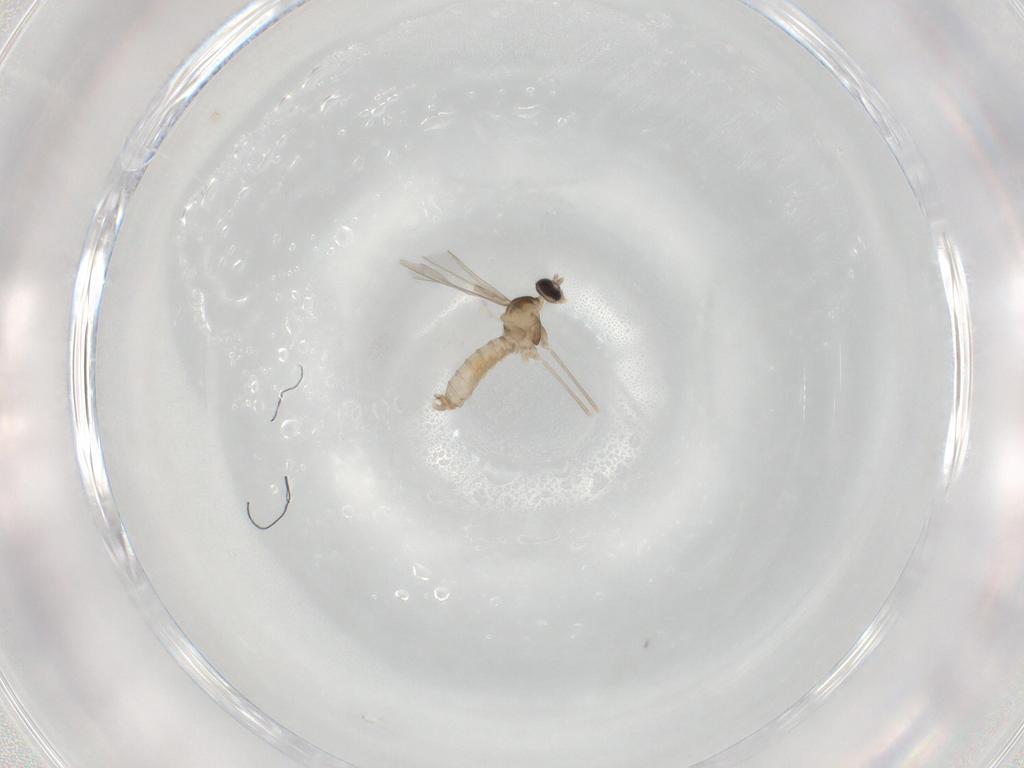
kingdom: Animalia
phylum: Arthropoda
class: Insecta
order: Diptera
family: Cecidomyiidae
